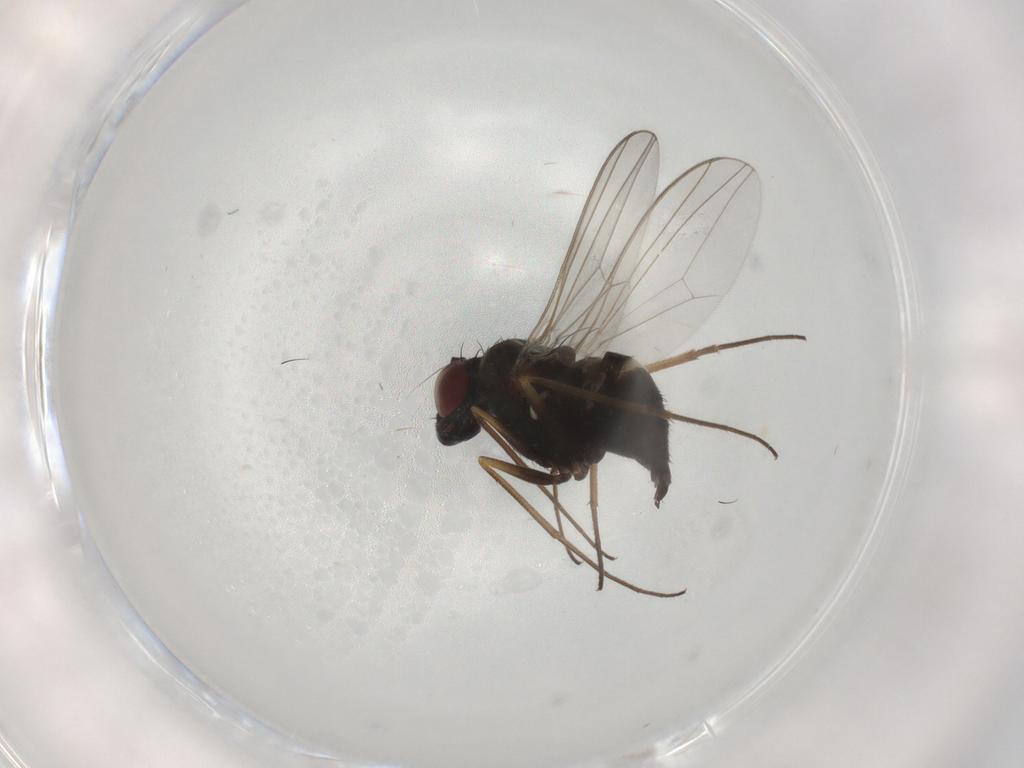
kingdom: Animalia
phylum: Arthropoda
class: Insecta
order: Diptera
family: Dolichopodidae
